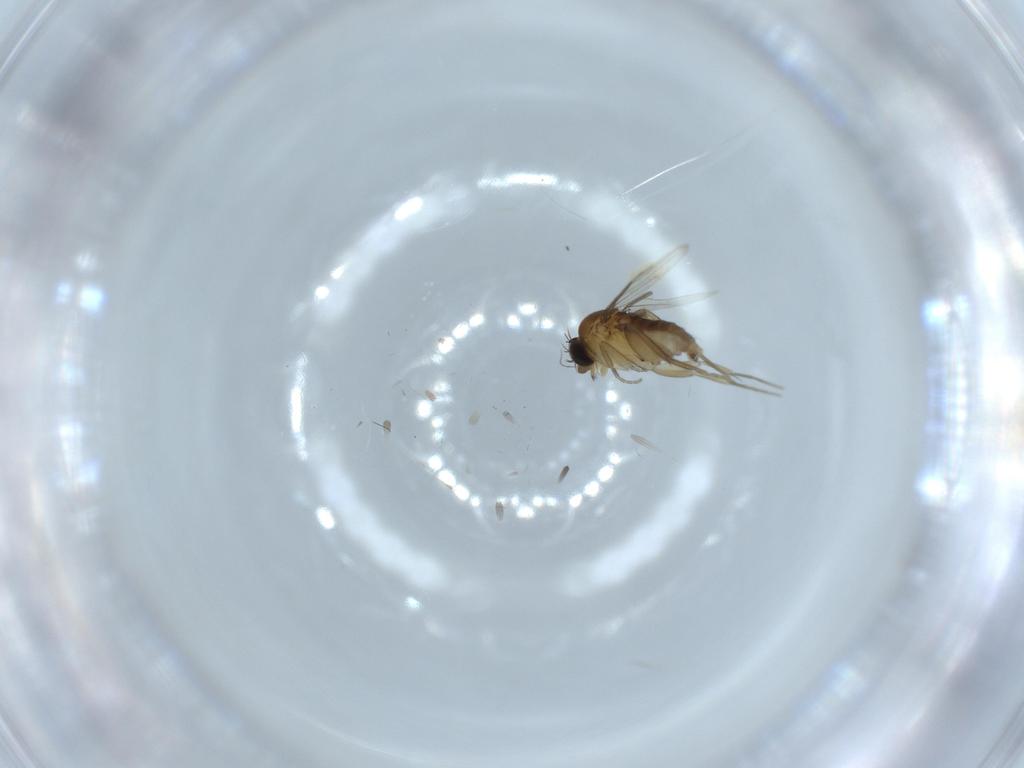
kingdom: Animalia
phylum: Arthropoda
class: Insecta
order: Diptera
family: Phoridae
